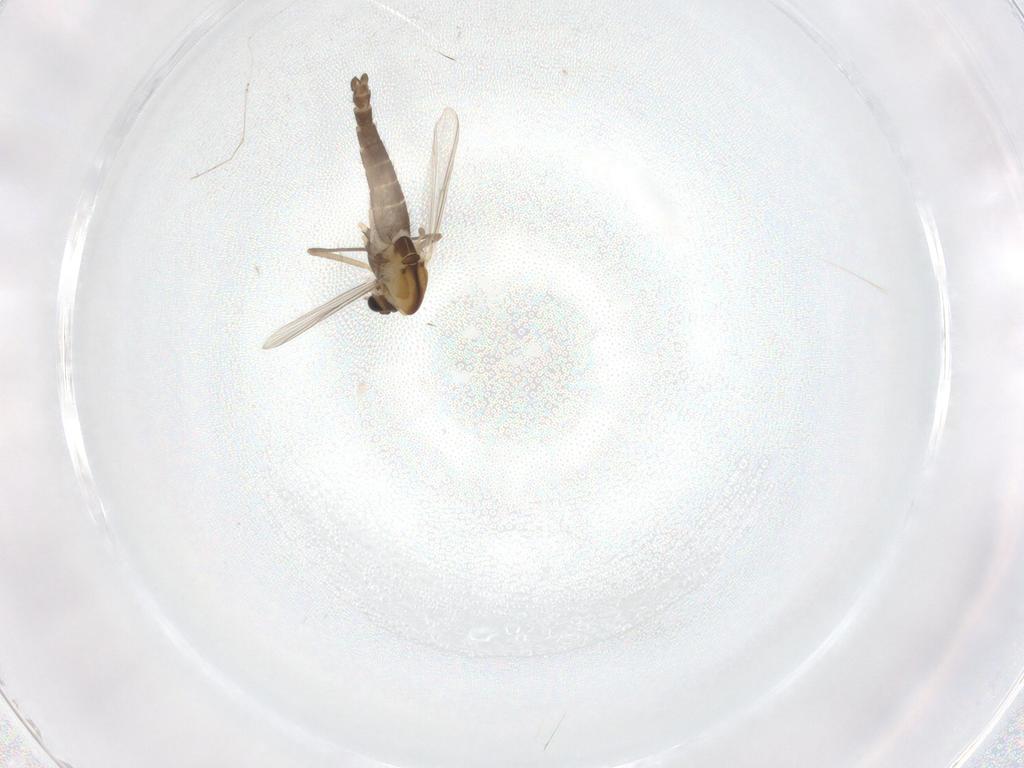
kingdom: Animalia
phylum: Arthropoda
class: Insecta
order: Diptera
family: Chironomidae
